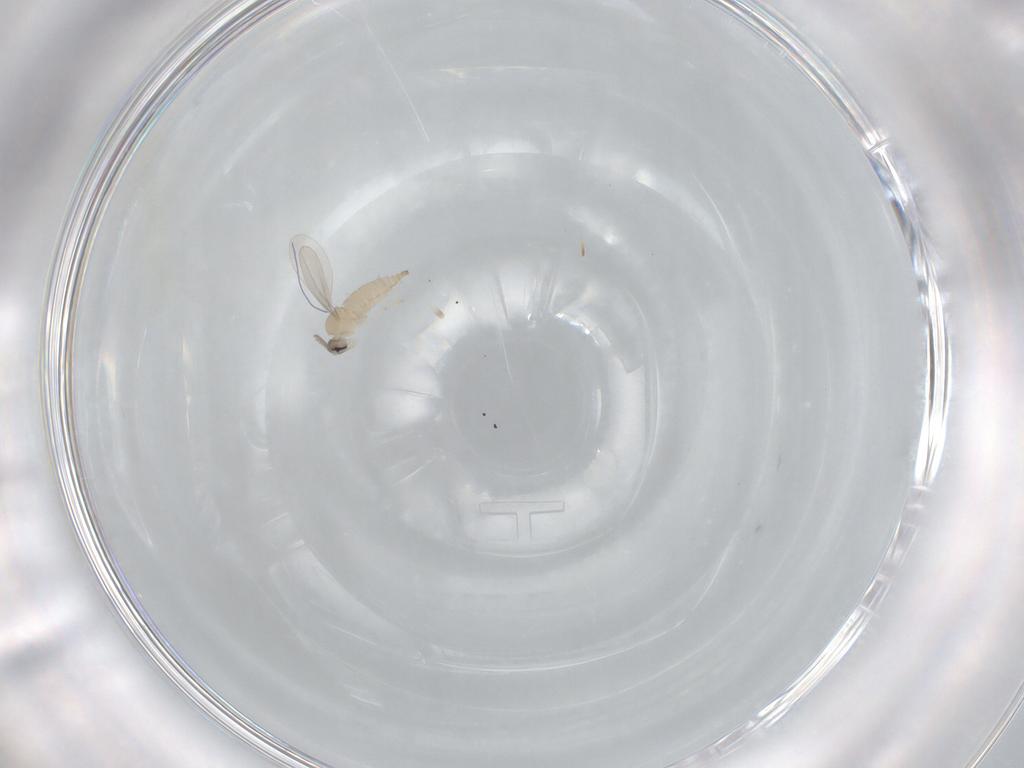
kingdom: Animalia
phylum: Arthropoda
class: Insecta
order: Diptera
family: Cecidomyiidae
